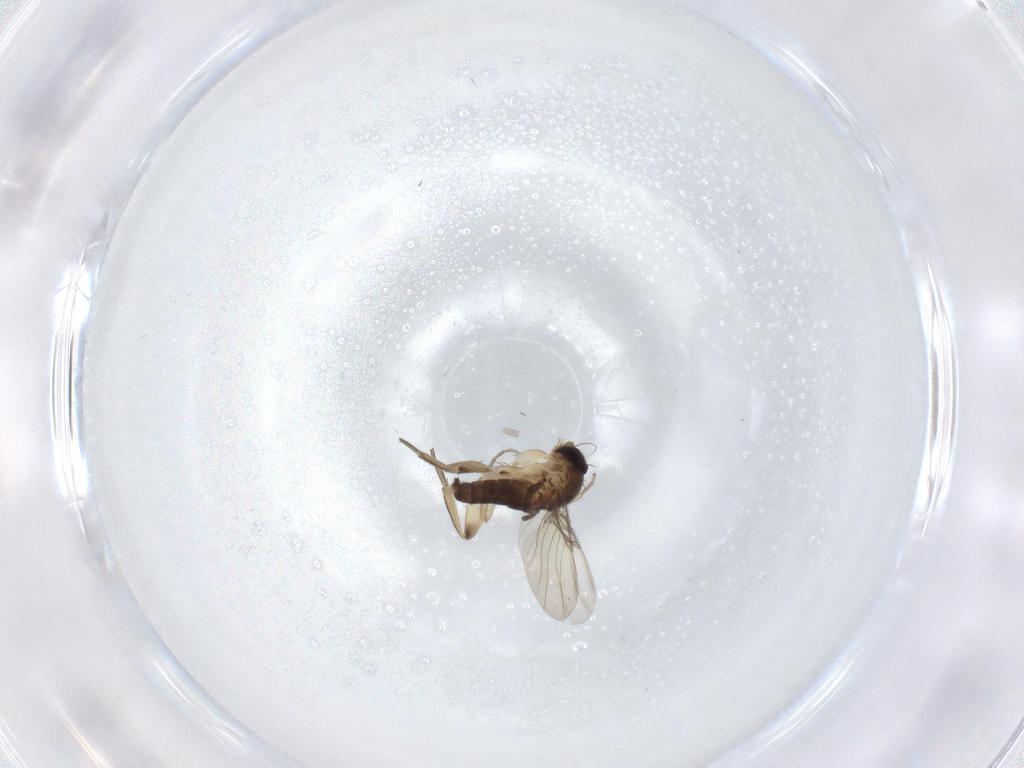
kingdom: Animalia
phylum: Arthropoda
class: Insecta
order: Diptera
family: Phoridae
